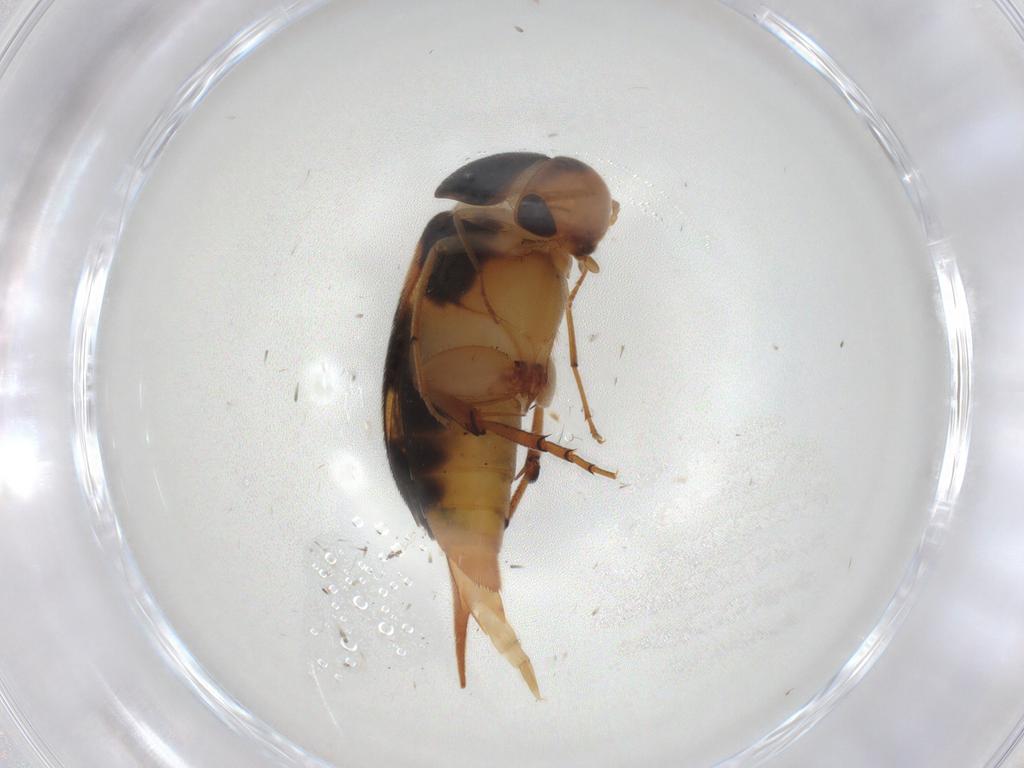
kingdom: Animalia
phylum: Arthropoda
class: Insecta
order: Coleoptera
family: Mordellidae
